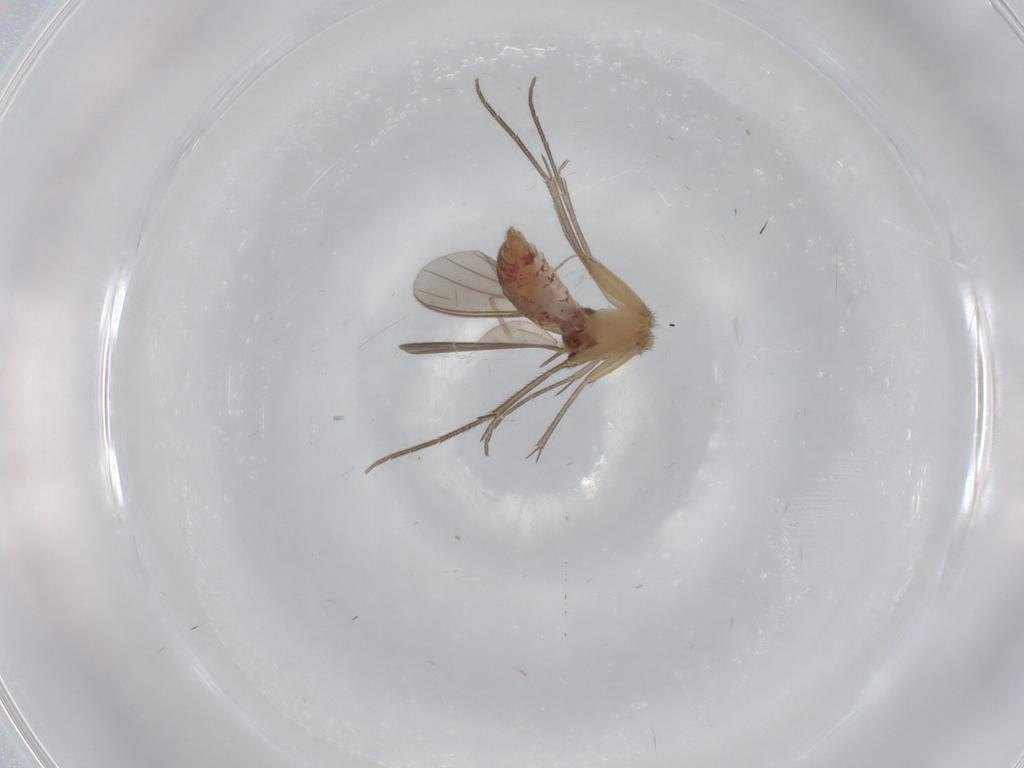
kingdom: Animalia
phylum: Arthropoda
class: Insecta
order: Diptera
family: Mycetophilidae
